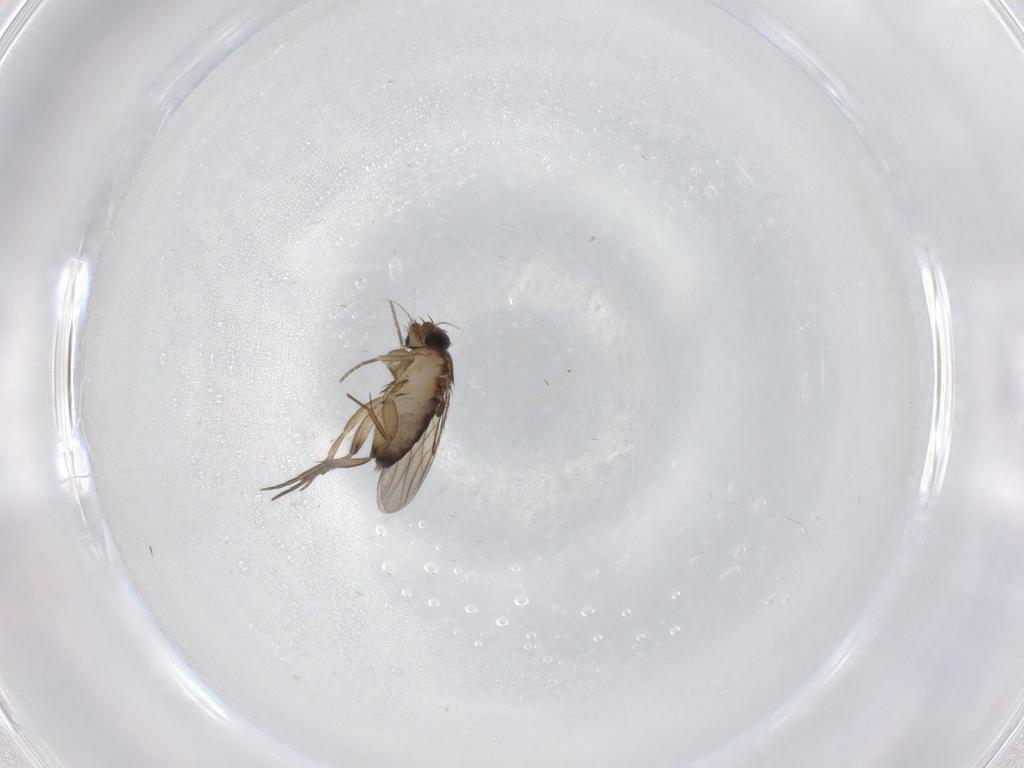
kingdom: Animalia
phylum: Arthropoda
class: Insecta
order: Diptera
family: Phoridae
